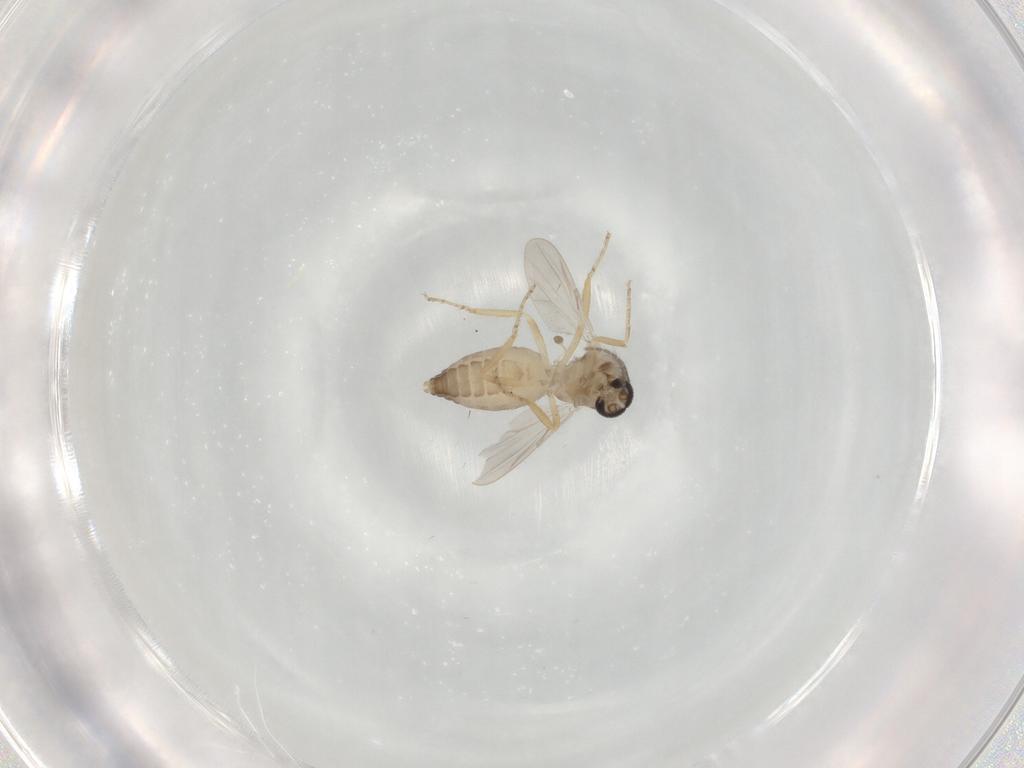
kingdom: Animalia
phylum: Arthropoda
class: Insecta
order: Diptera
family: Ceratopogonidae
